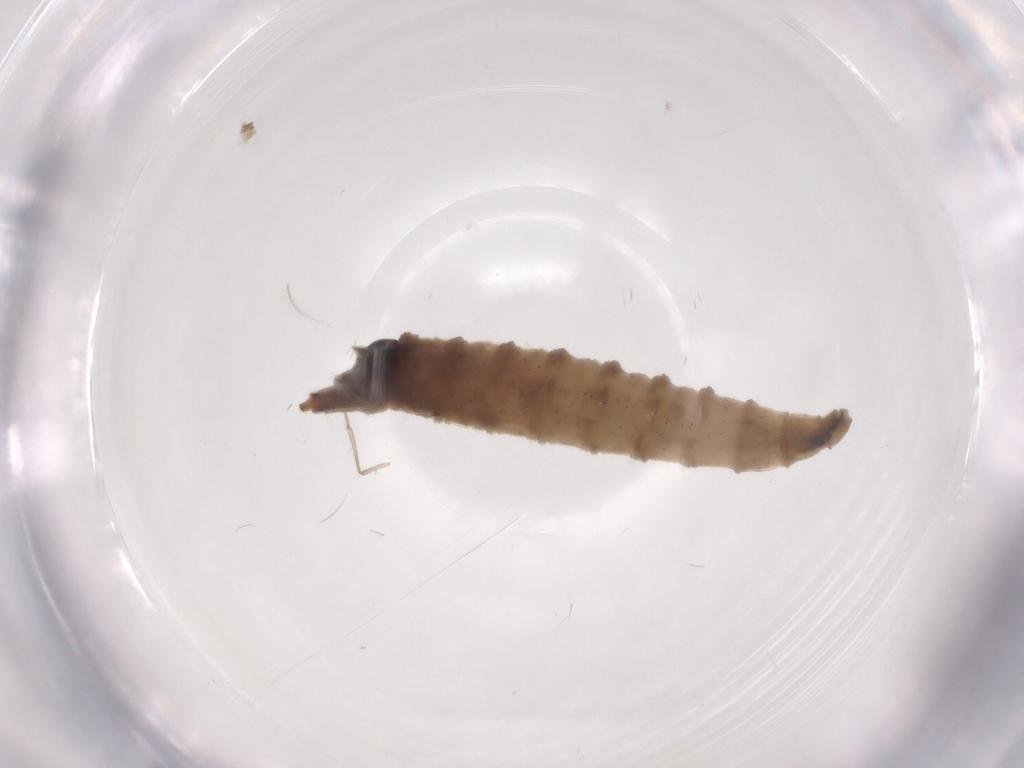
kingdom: Animalia
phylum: Arthropoda
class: Insecta
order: Diptera
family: Drosophilidae
